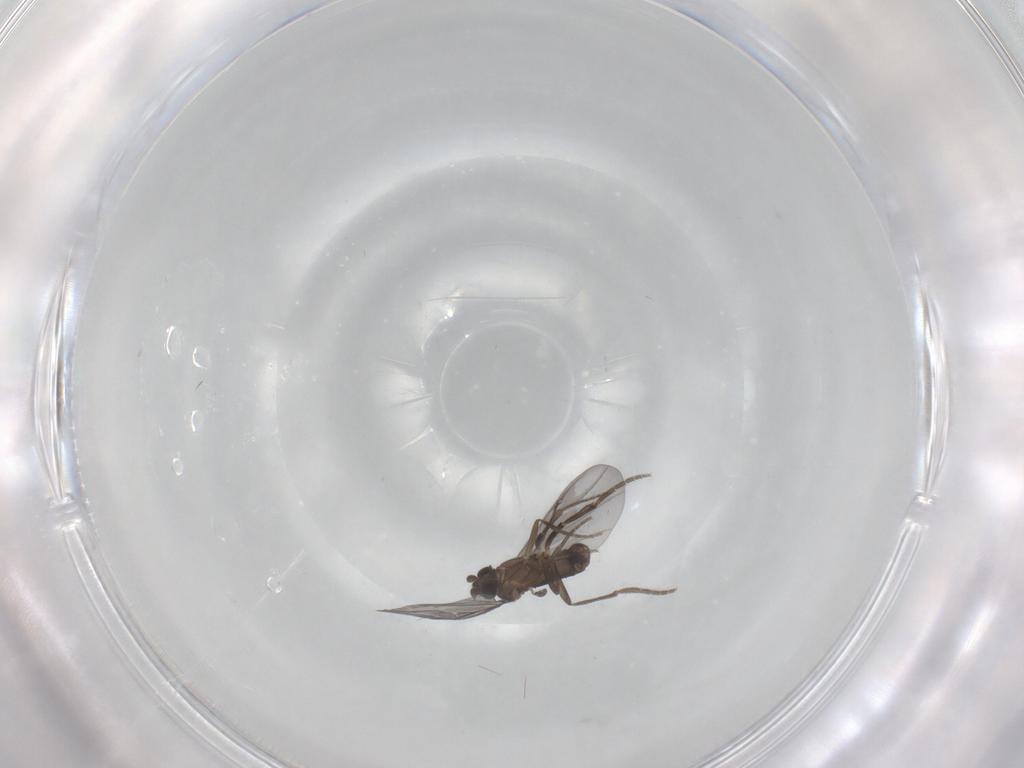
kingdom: Animalia
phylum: Arthropoda
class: Insecta
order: Diptera
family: Phoridae
